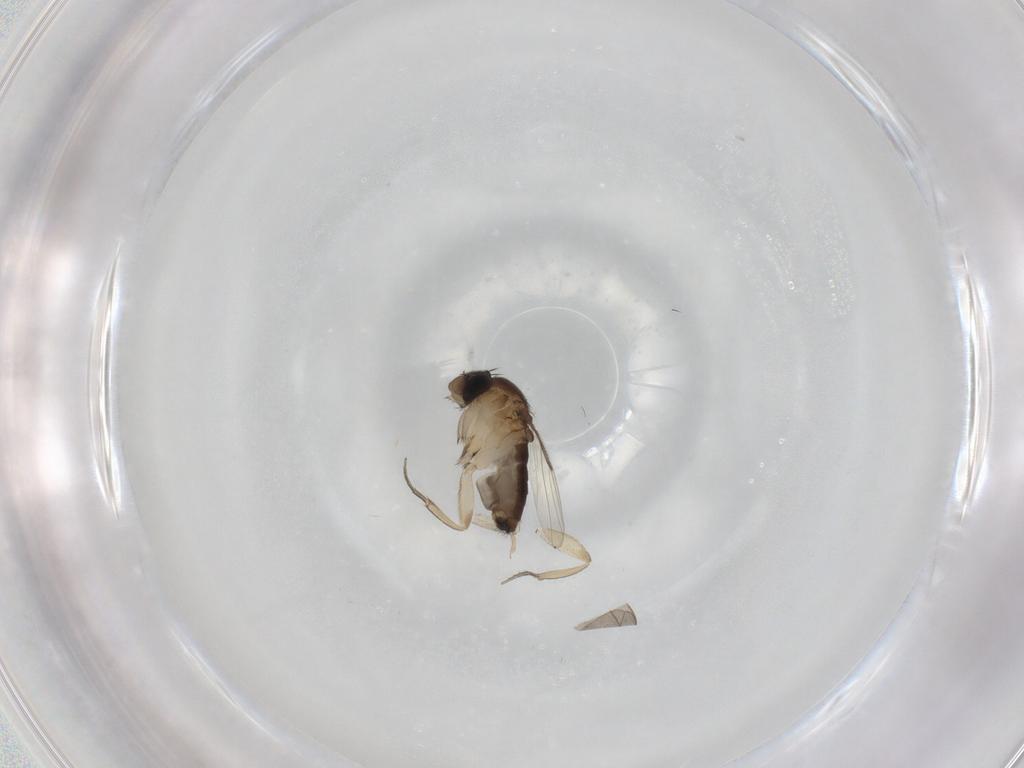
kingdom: Animalia
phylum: Arthropoda
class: Insecta
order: Diptera
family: Phoridae
